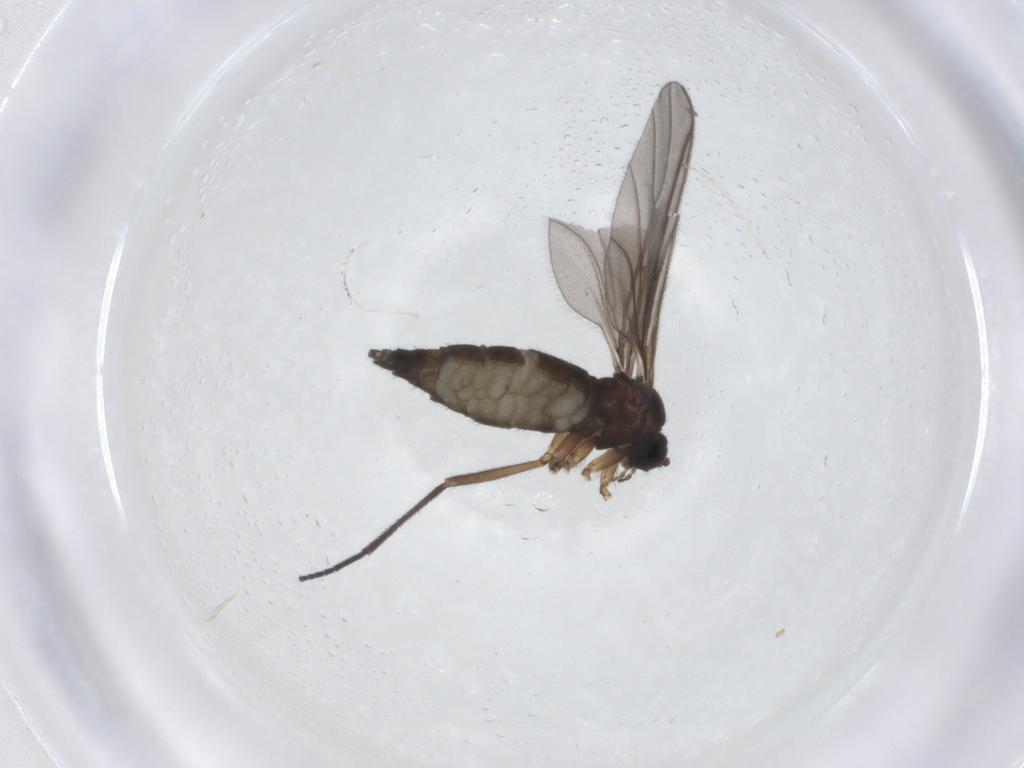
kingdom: Animalia
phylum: Arthropoda
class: Insecta
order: Diptera
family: Sciaridae
